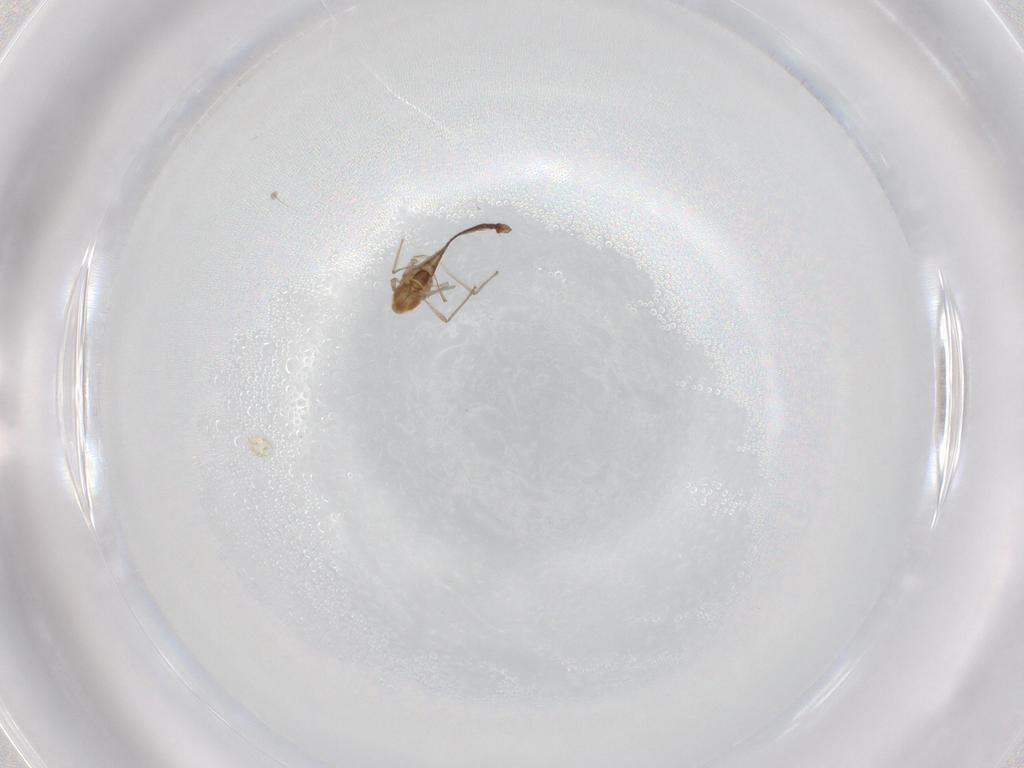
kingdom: Animalia
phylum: Arthropoda
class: Insecta
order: Diptera
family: Chironomidae
